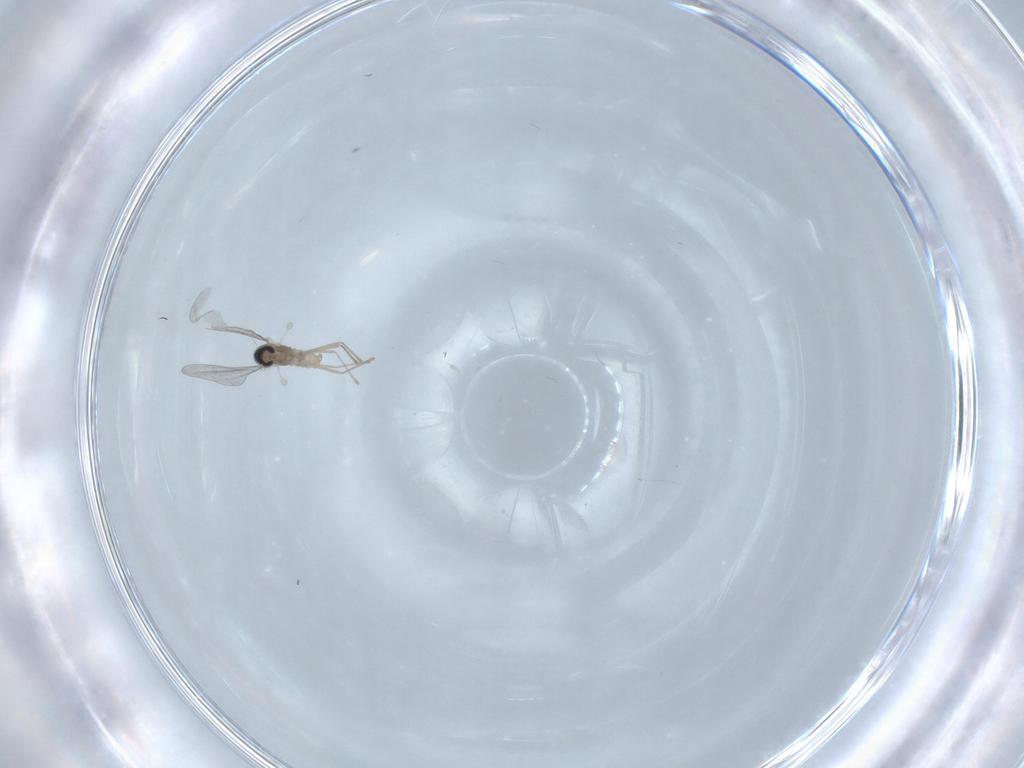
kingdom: Animalia
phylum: Arthropoda
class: Insecta
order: Diptera
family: Cecidomyiidae
